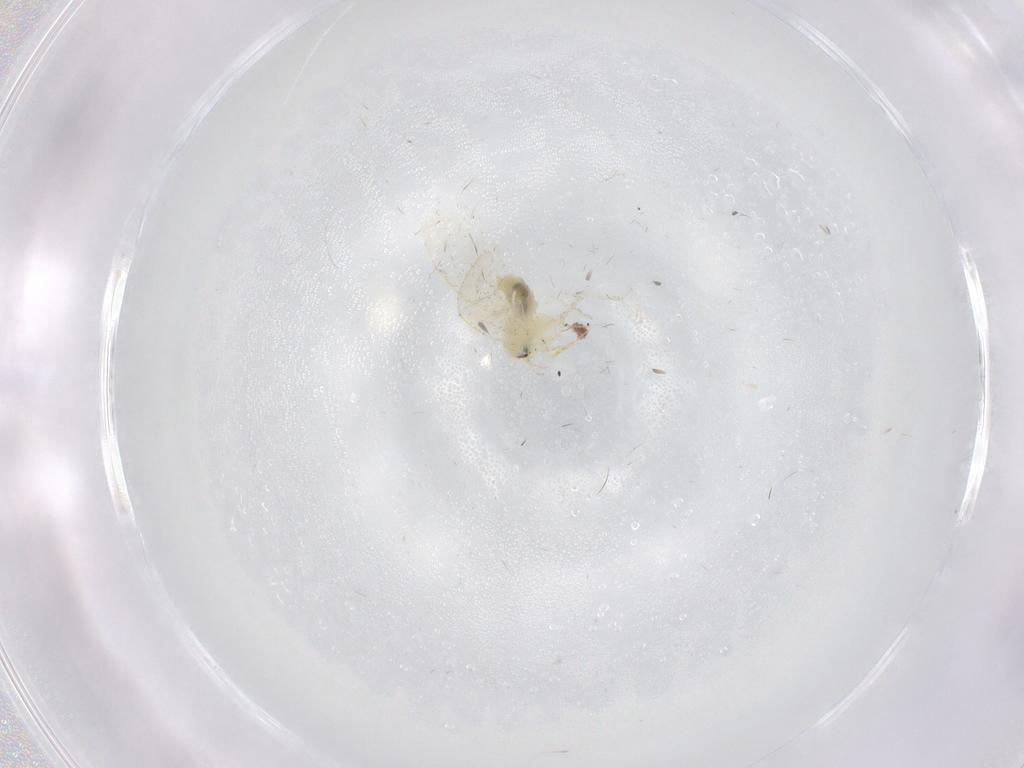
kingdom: Animalia
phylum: Arthropoda
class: Insecta
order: Hemiptera
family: Aleyrodidae
